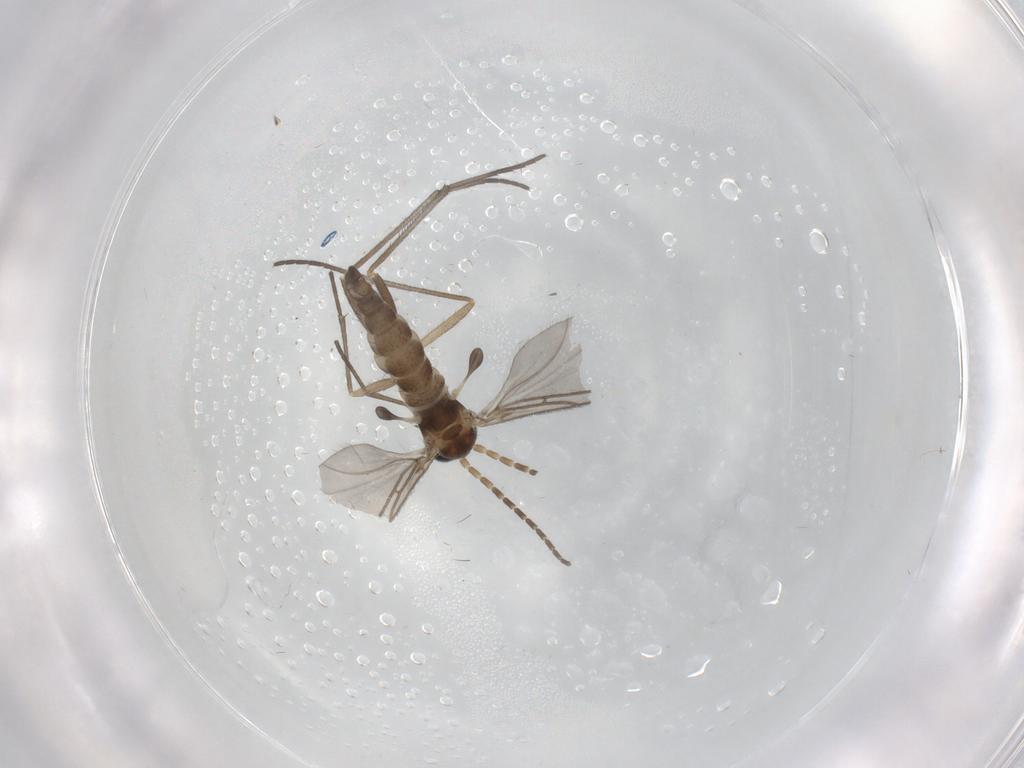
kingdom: Animalia
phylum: Arthropoda
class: Insecta
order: Diptera
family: Sciaridae
